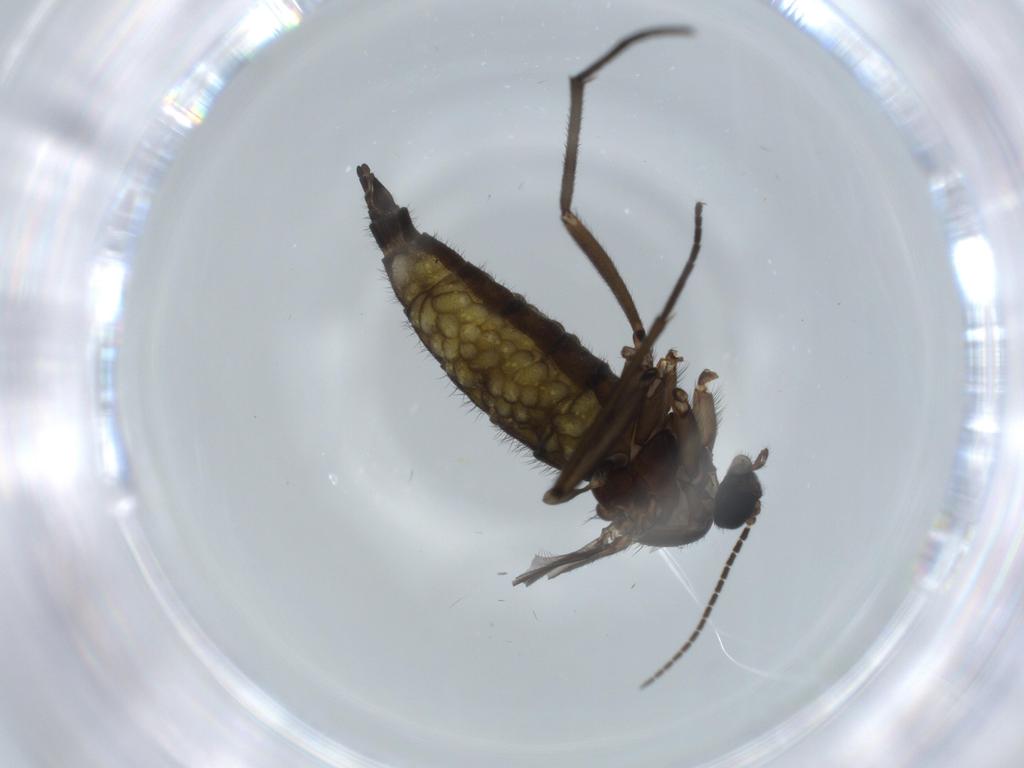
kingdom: Animalia
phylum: Arthropoda
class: Insecta
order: Diptera
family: Sciaridae
